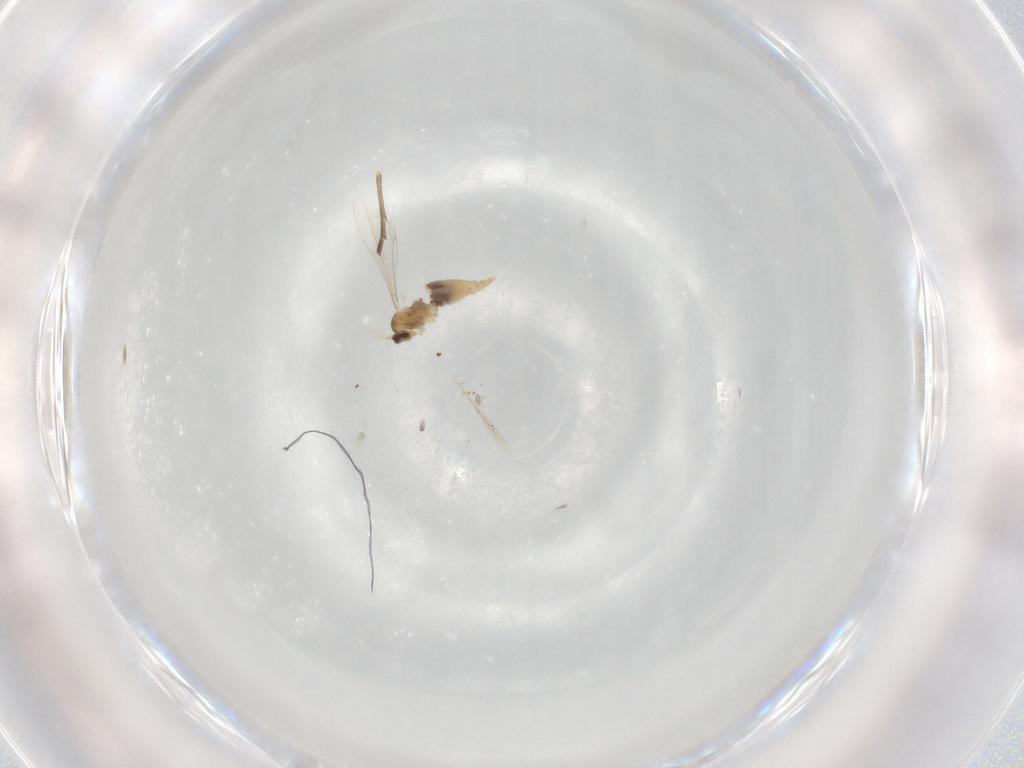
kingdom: Animalia
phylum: Arthropoda
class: Insecta
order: Diptera
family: Cecidomyiidae
